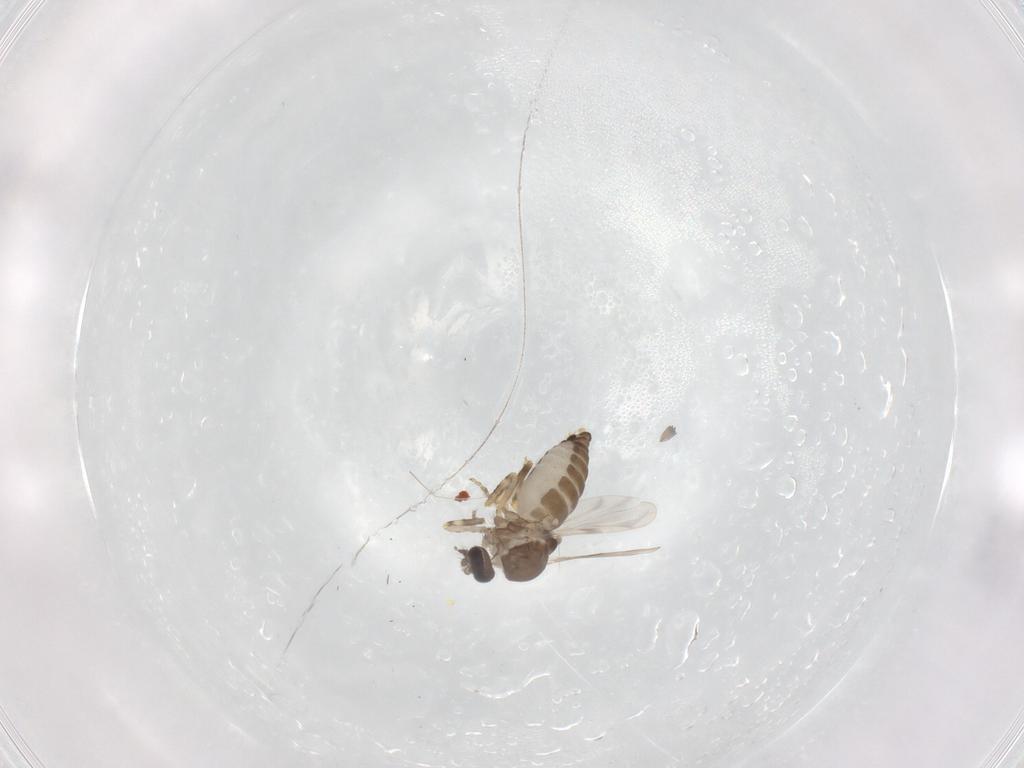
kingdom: Animalia
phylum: Arthropoda
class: Insecta
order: Diptera
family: Ceratopogonidae
